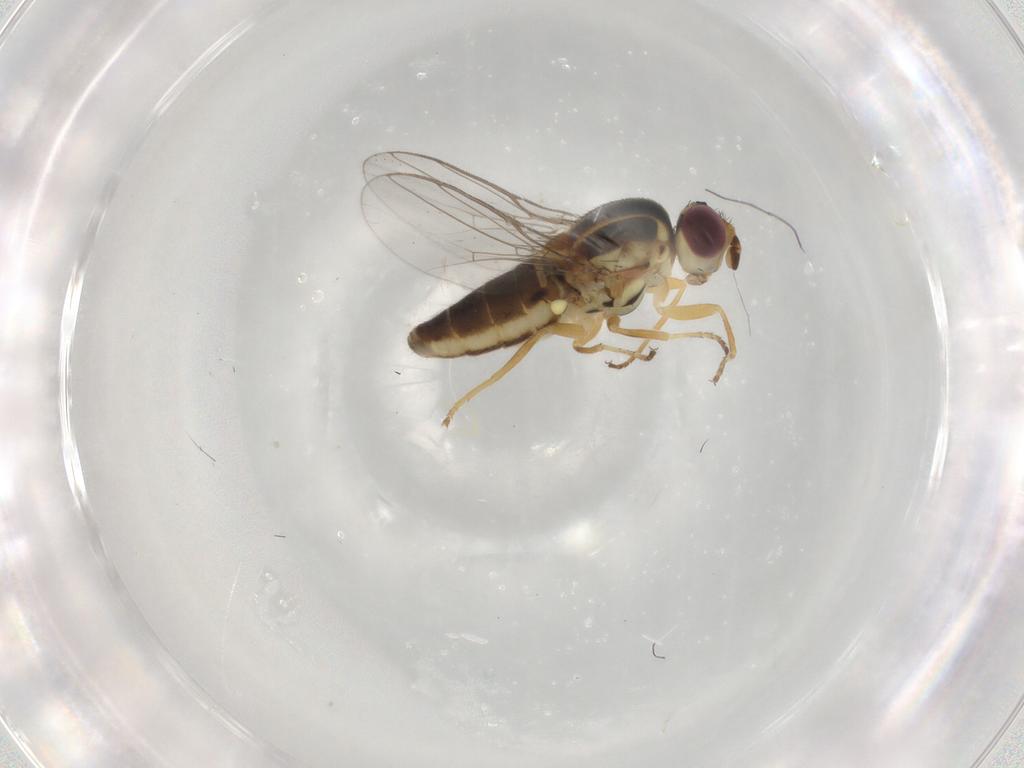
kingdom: Animalia
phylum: Arthropoda
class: Insecta
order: Diptera
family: Chloropidae
